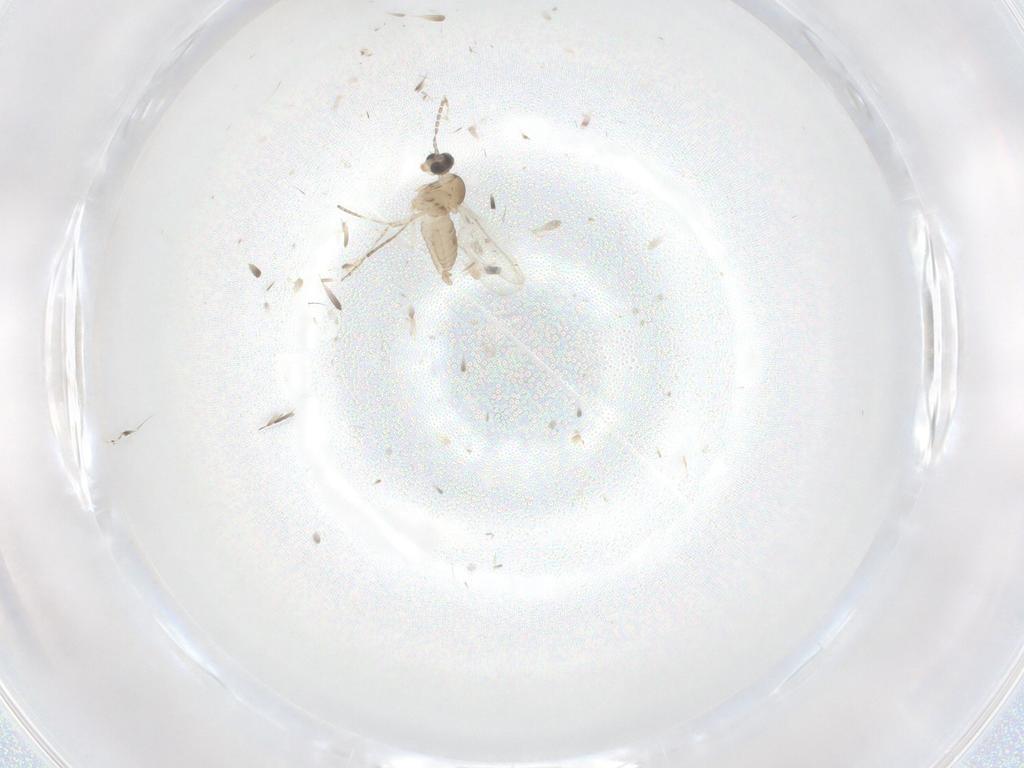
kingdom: Animalia
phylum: Arthropoda
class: Insecta
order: Diptera
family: Cecidomyiidae
